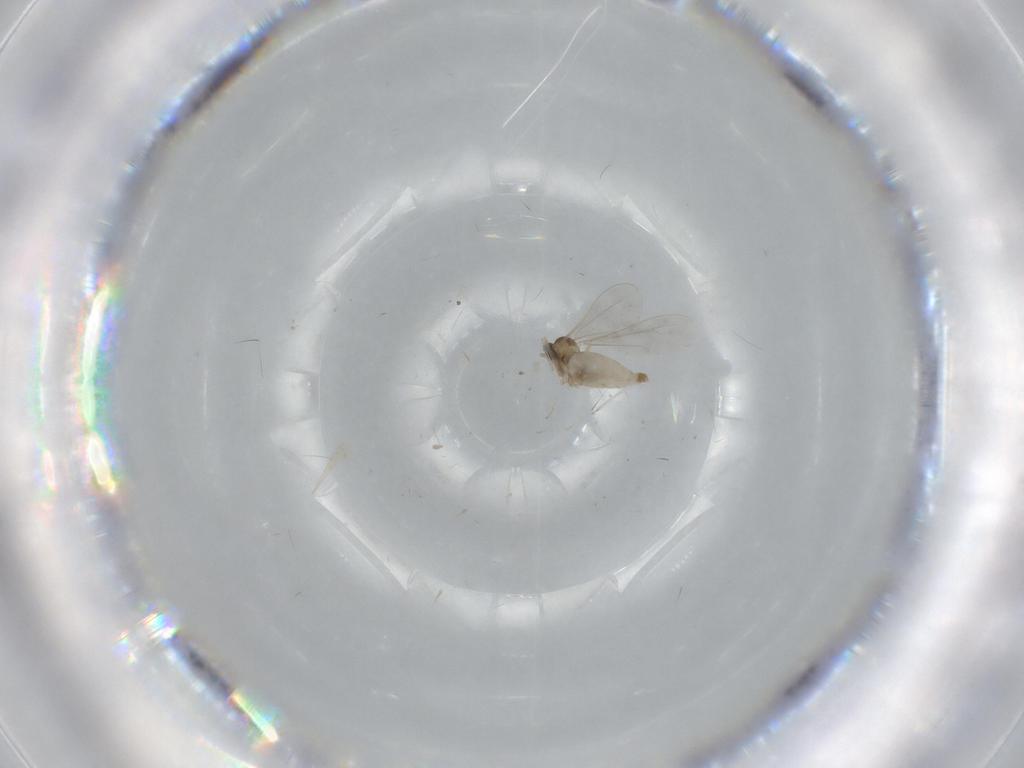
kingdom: Animalia
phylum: Arthropoda
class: Insecta
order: Diptera
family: Cecidomyiidae
